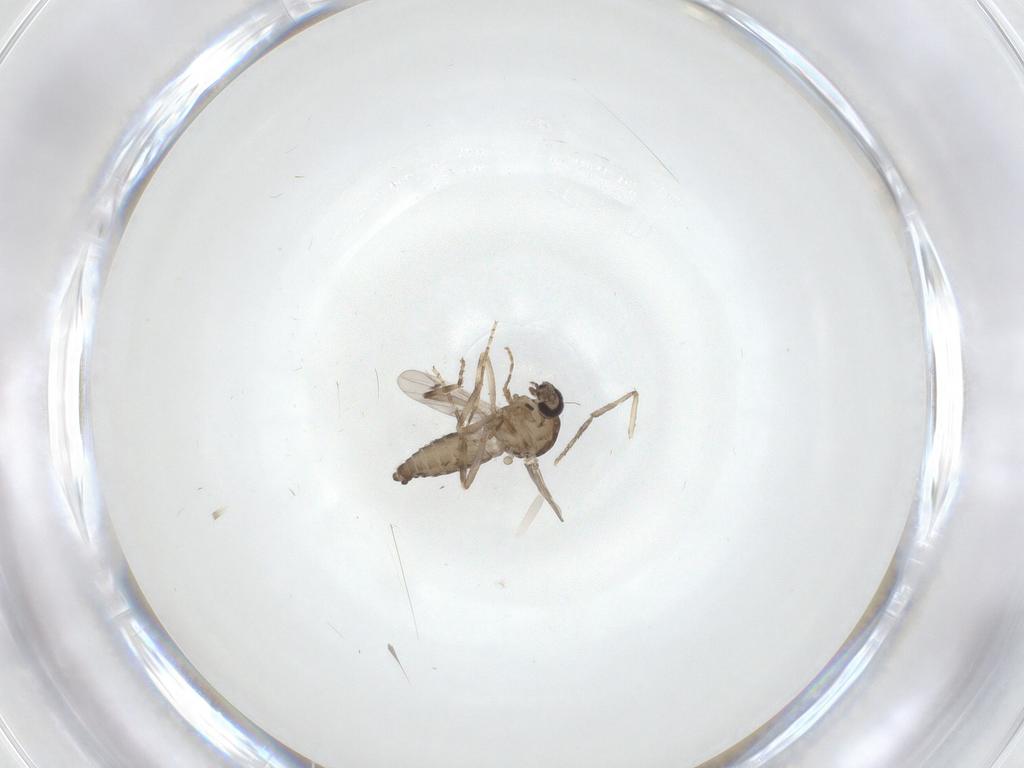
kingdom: Animalia
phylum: Arthropoda
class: Insecta
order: Diptera
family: Ceratopogonidae
